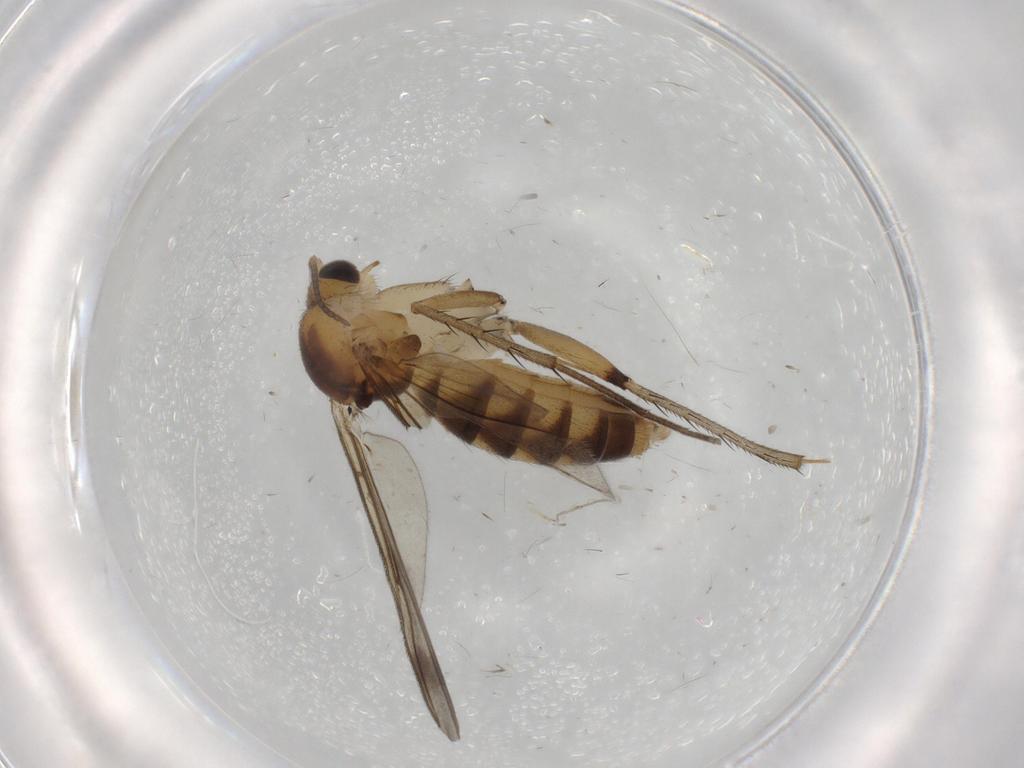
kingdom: Animalia
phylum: Arthropoda
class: Insecta
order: Diptera
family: Mycetophilidae
